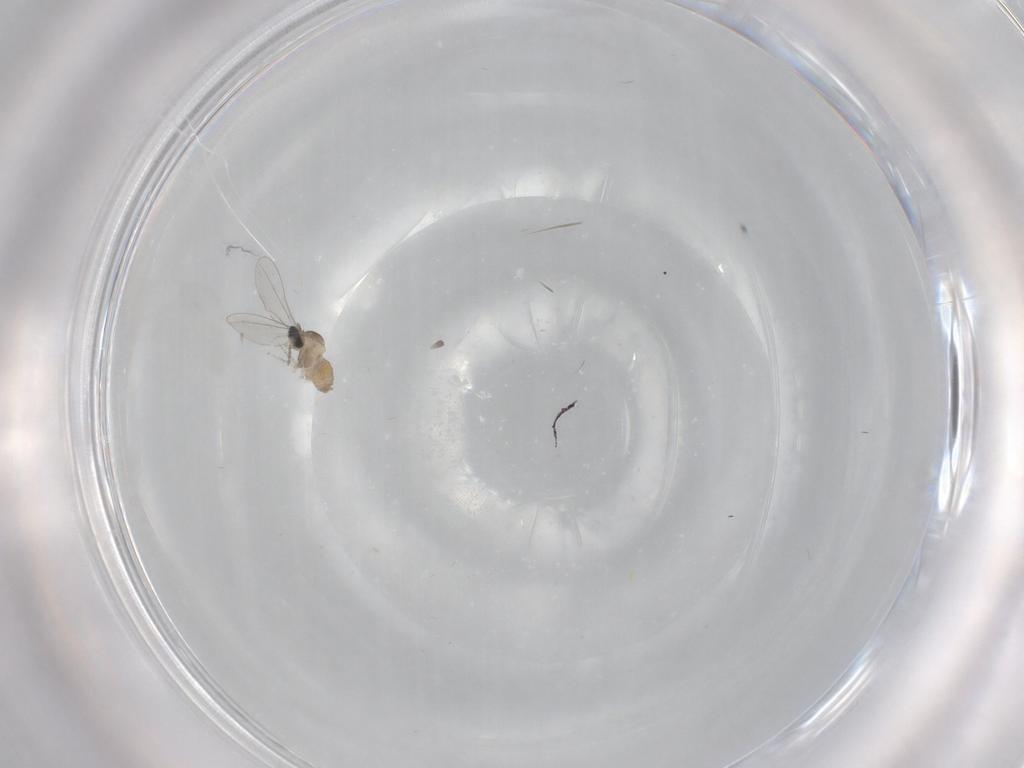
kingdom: Animalia
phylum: Arthropoda
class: Insecta
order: Diptera
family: Cecidomyiidae
